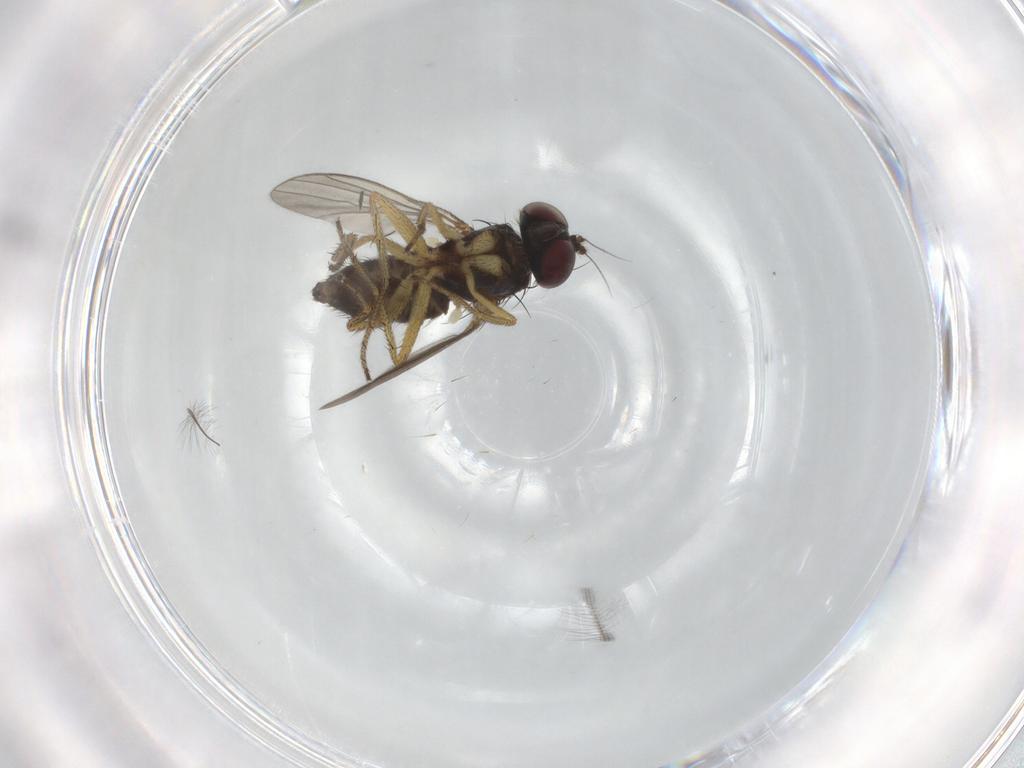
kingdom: Animalia
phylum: Arthropoda
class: Insecta
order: Diptera
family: Dolichopodidae
